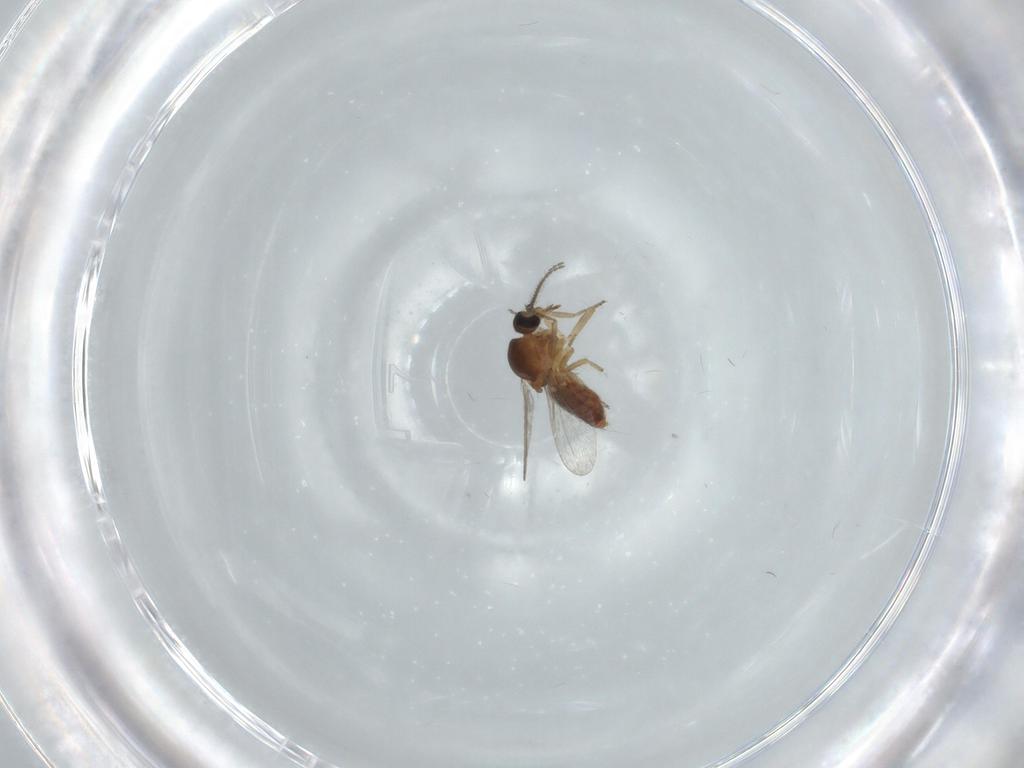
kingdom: Animalia
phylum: Arthropoda
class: Insecta
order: Diptera
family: Ceratopogonidae
